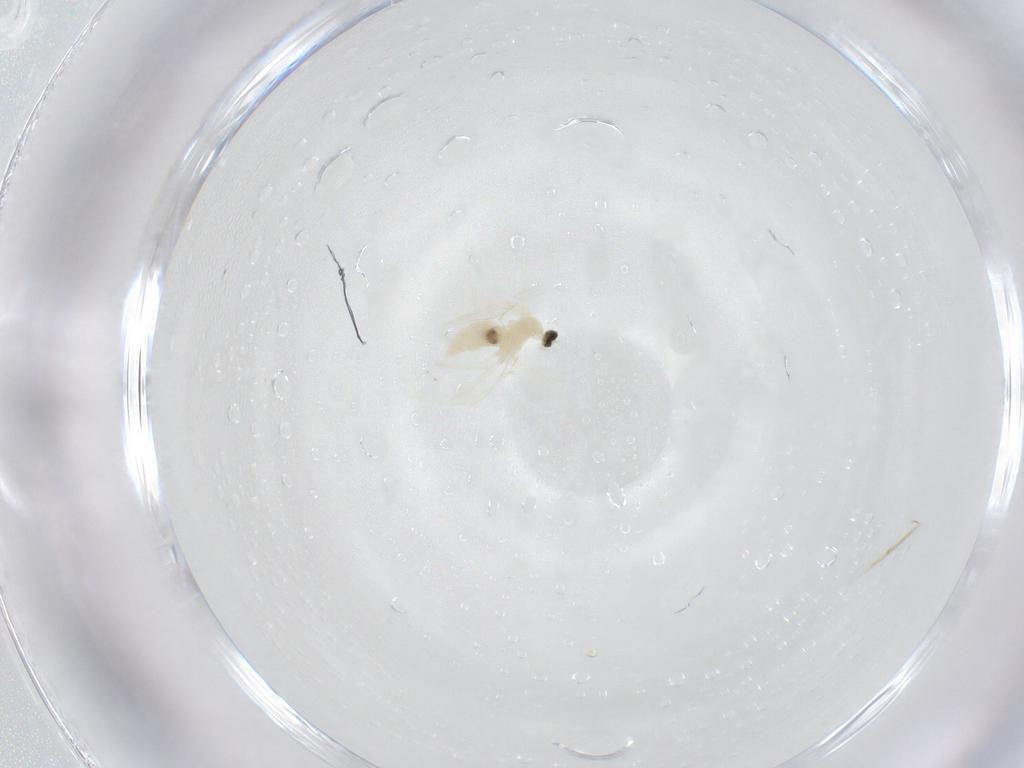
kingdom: Animalia
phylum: Arthropoda
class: Insecta
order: Diptera
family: Cecidomyiidae
